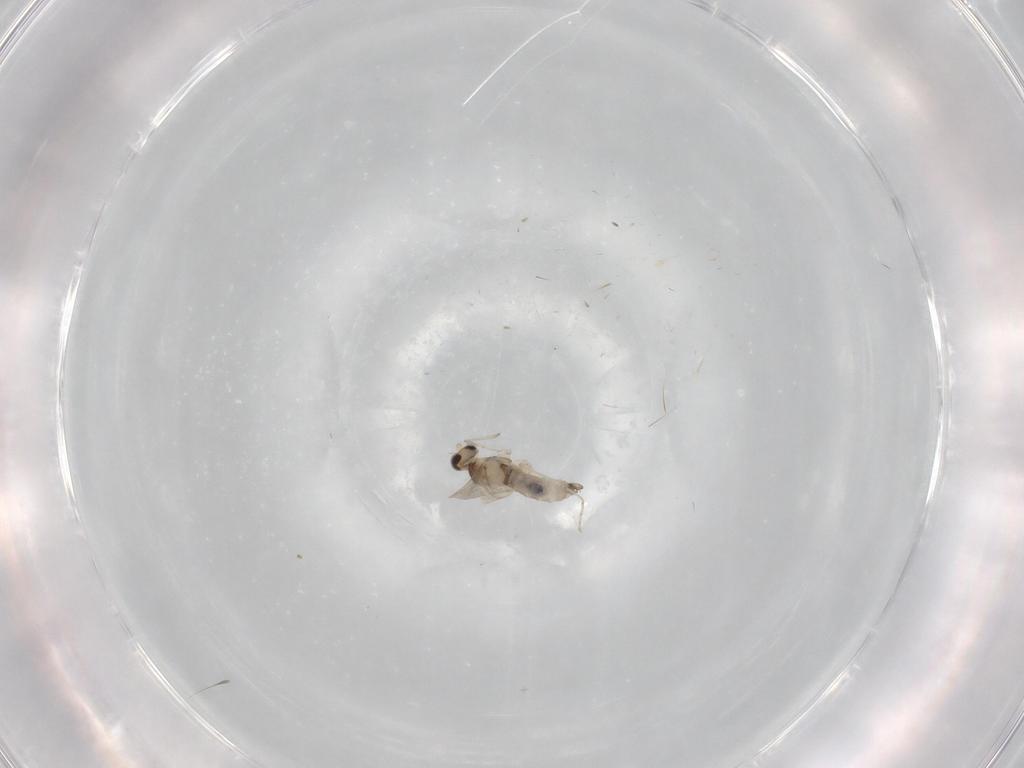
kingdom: Animalia
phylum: Arthropoda
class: Insecta
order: Diptera
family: Cecidomyiidae
